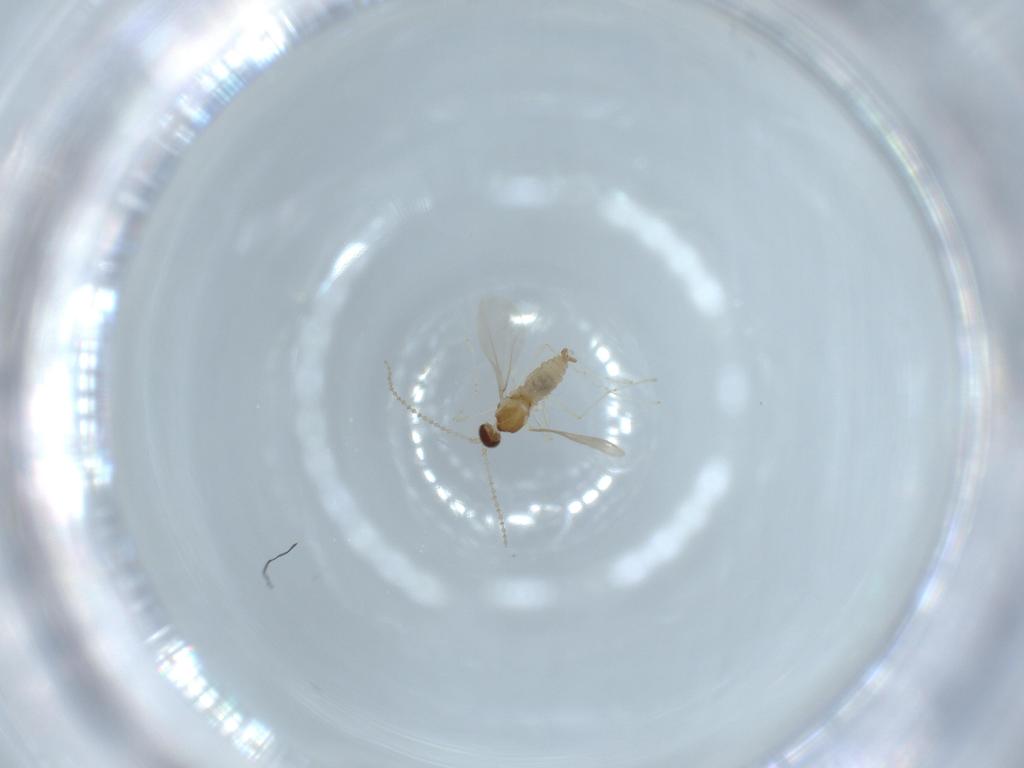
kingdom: Animalia
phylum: Arthropoda
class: Insecta
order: Diptera
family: Cecidomyiidae
